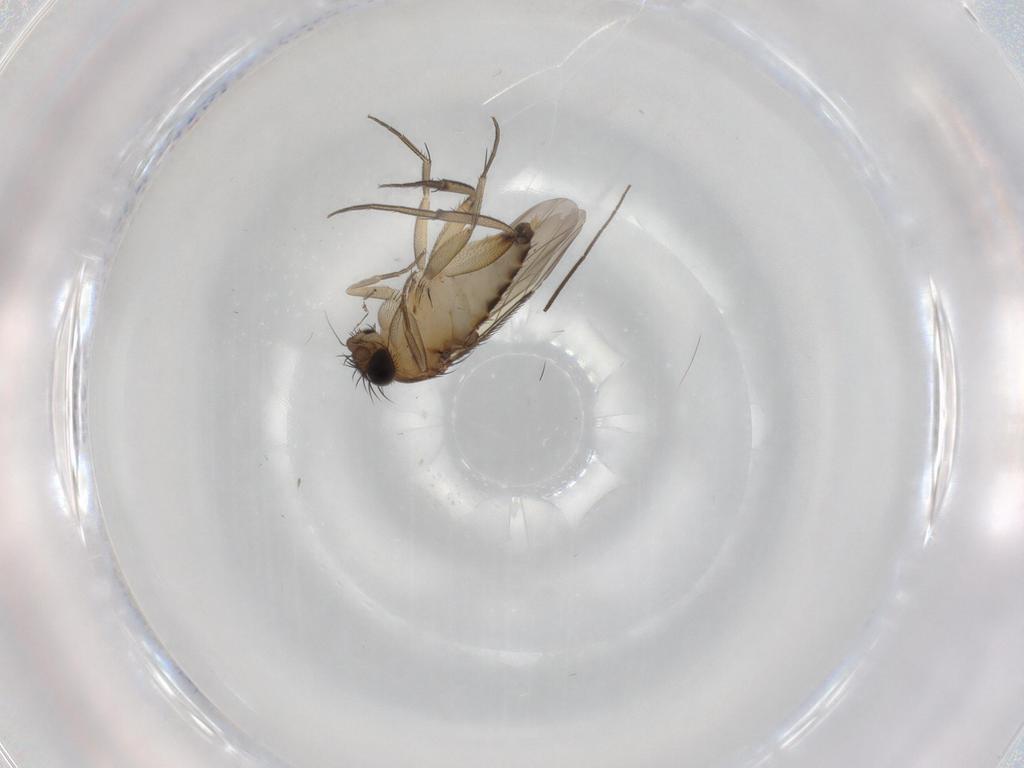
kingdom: Animalia
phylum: Arthropoda
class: Insecta
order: Diptera
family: Phoridae
